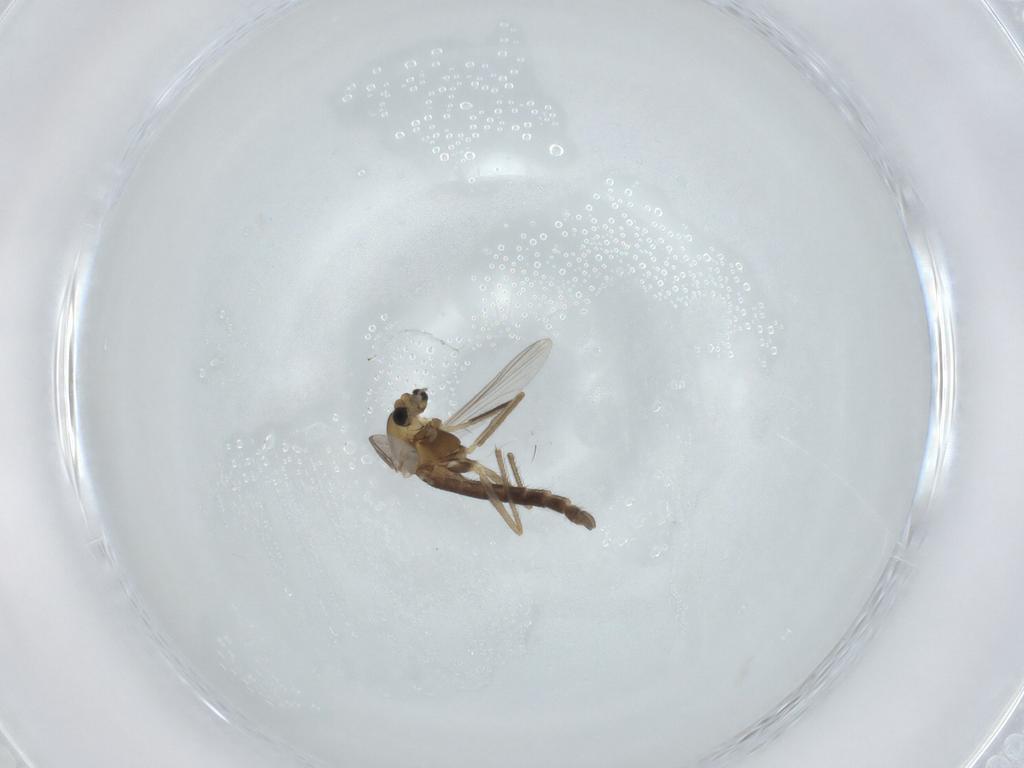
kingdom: Animalia
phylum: Arthropoda
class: Insecta
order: Diptera
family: Chironomidae
